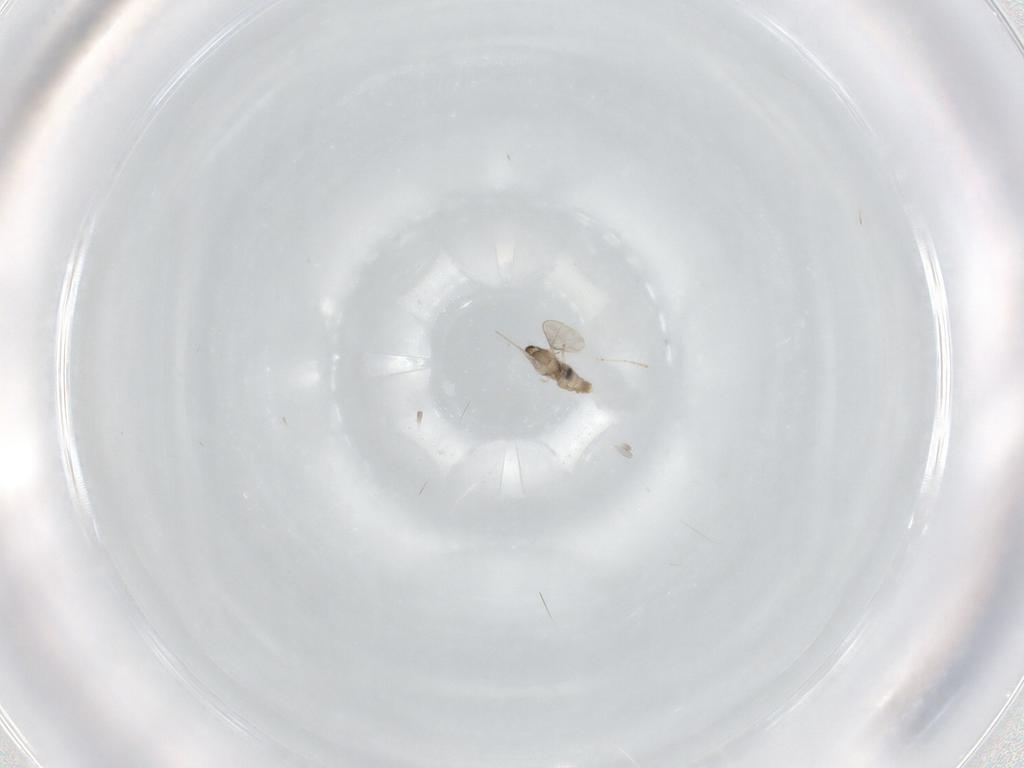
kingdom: Animalia
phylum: Arthropoda
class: Insecta
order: Diptera
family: Cecidomyiidae
